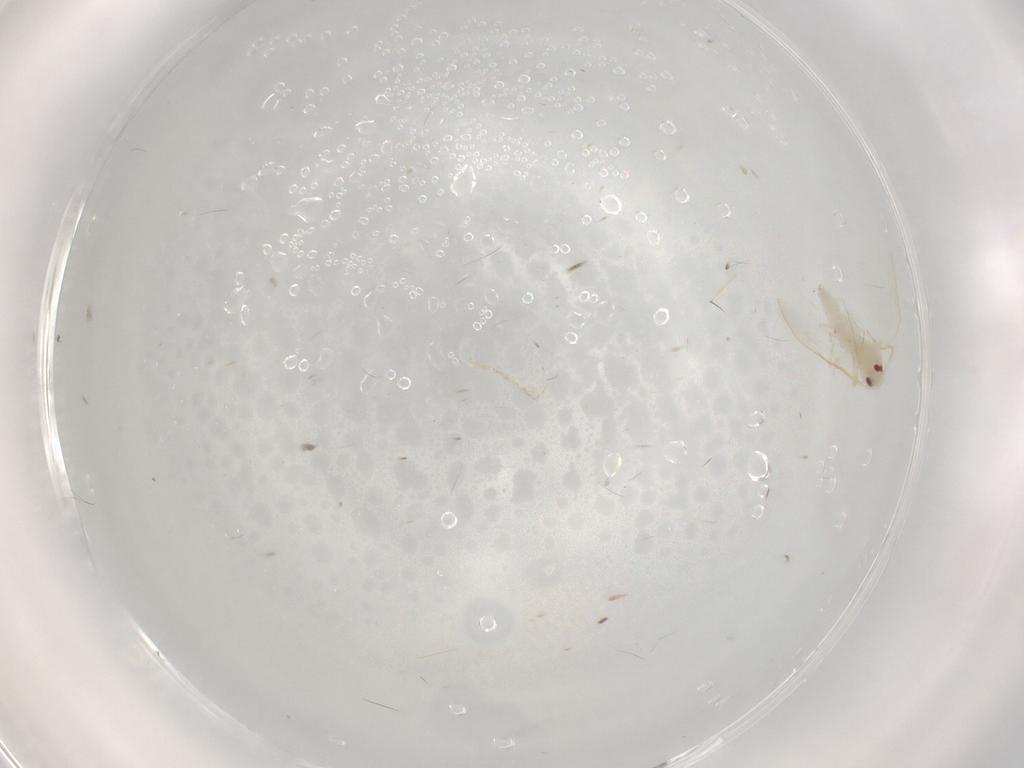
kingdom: Animalia
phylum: Arthropoda
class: Insecta
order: Hemiptera
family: Aleyrodidae
